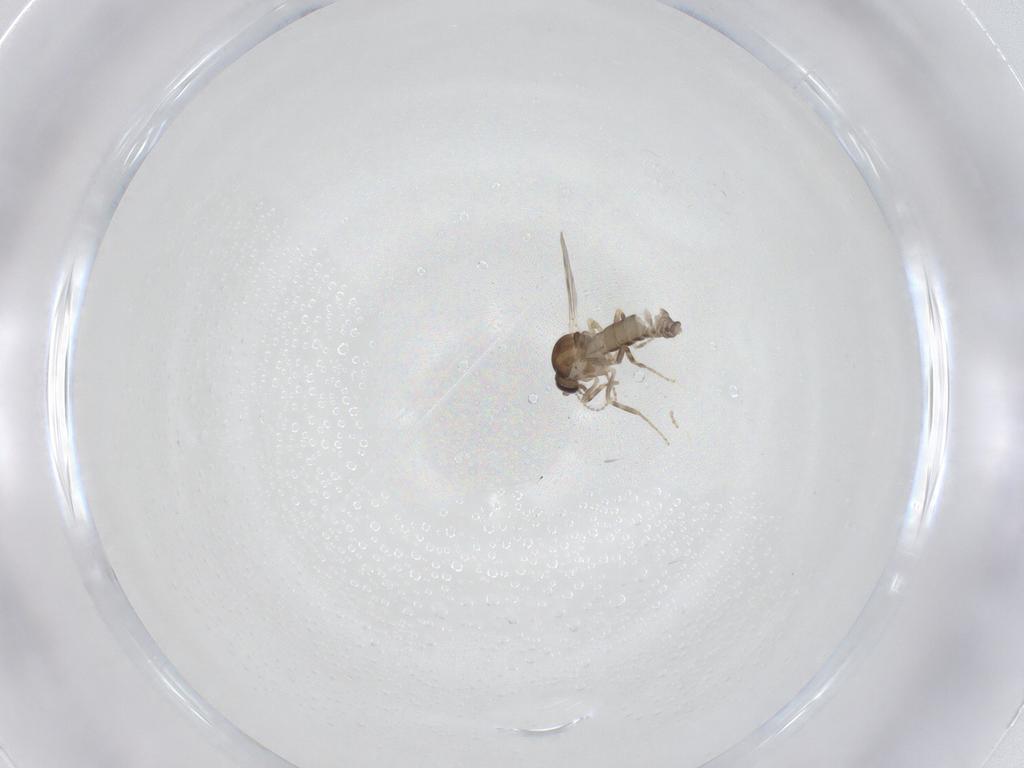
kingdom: Animalia
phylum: Arthropoda
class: Insecta
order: Diptera
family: Ceratopogonidae
